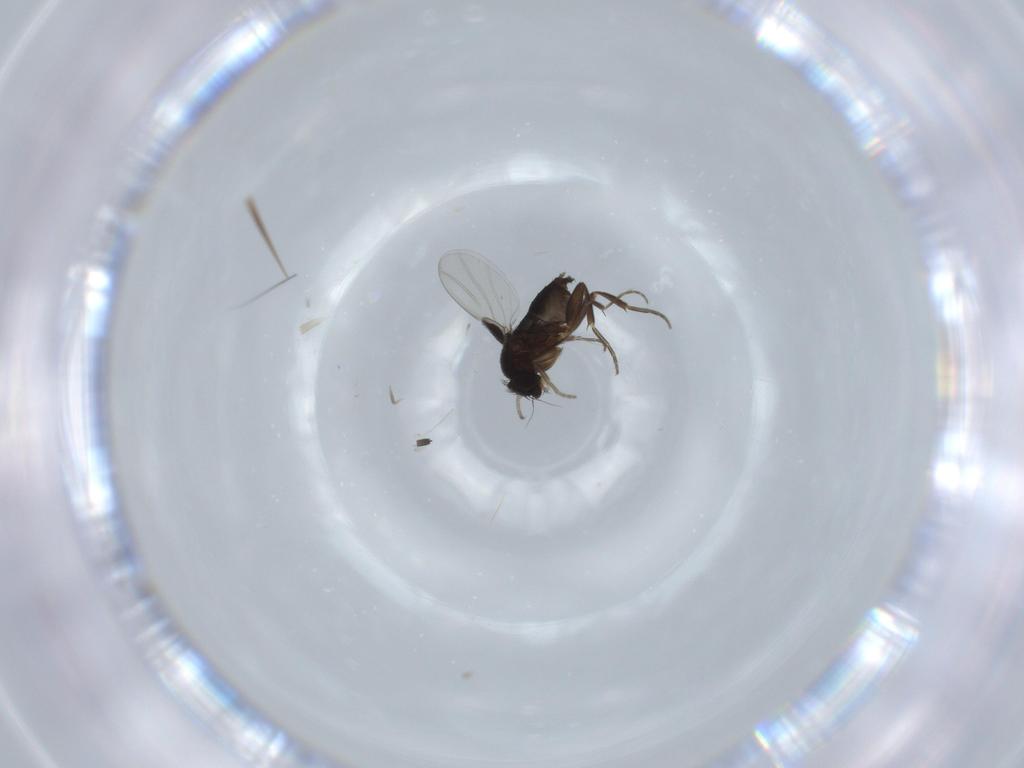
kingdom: Animalia
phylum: Arthropoda
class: Insecta
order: Diptera
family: Phoridae
